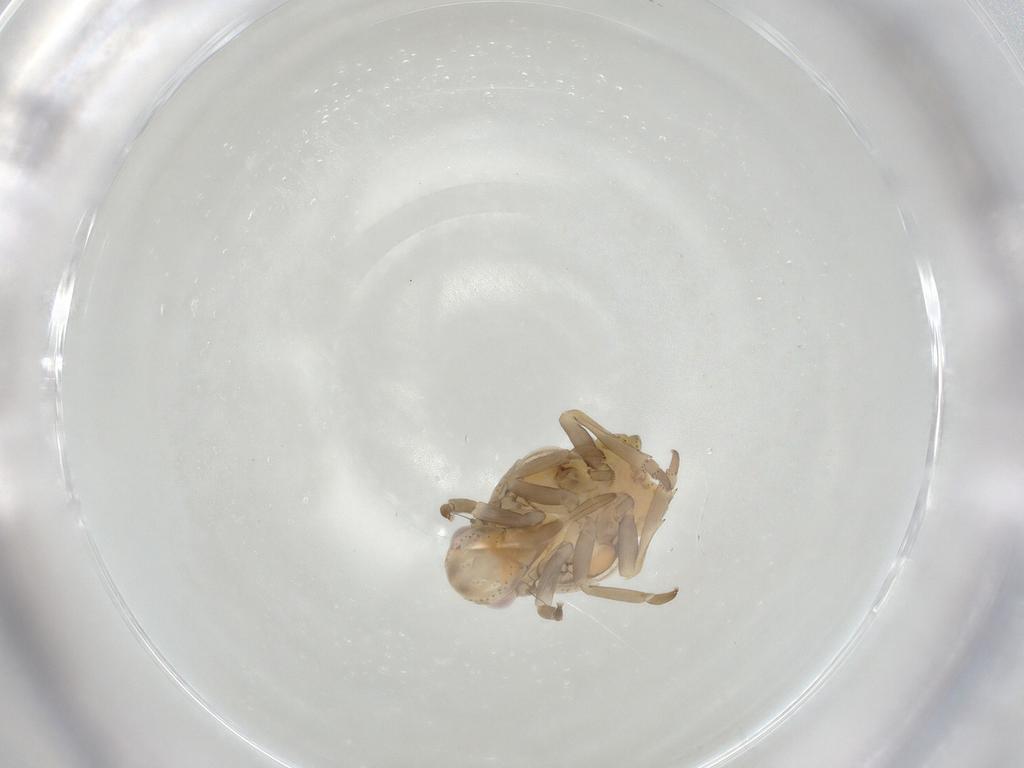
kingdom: Animalia
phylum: Arthropoda
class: Insecta
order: Hemiptera
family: Flatidae
